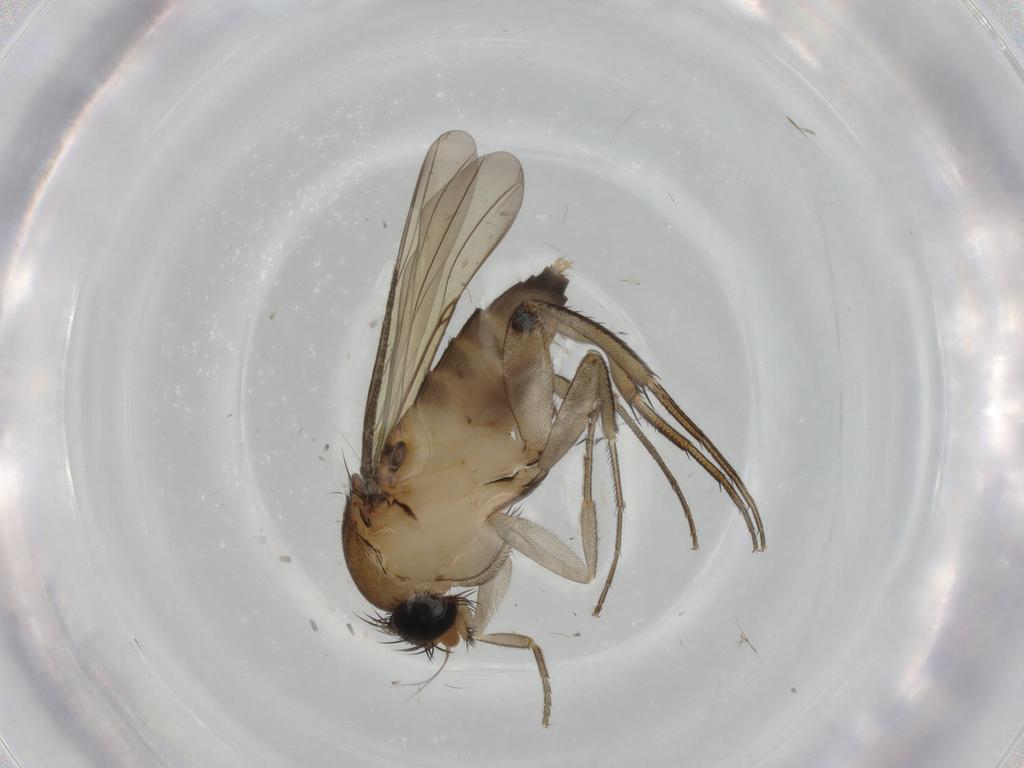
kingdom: Animalia
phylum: Arthropoda
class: Insecta
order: Diptera
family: Phoridae
